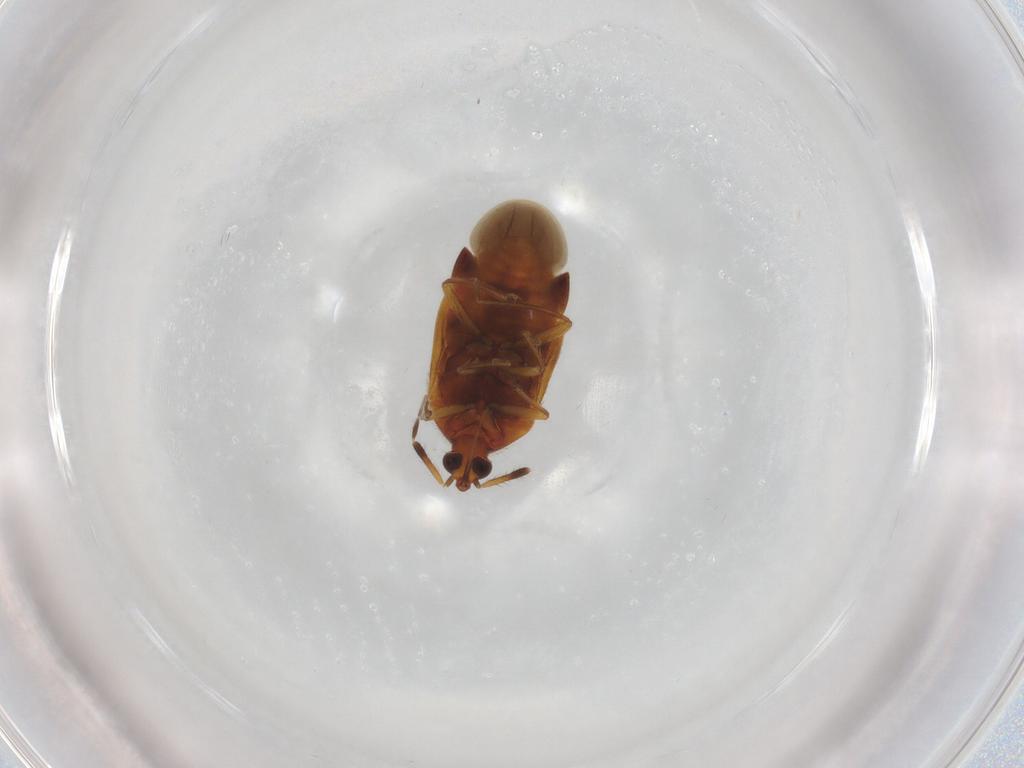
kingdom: Animalia
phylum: Arthropoda
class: Insecta
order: Hemiptera
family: Anthocoridae
